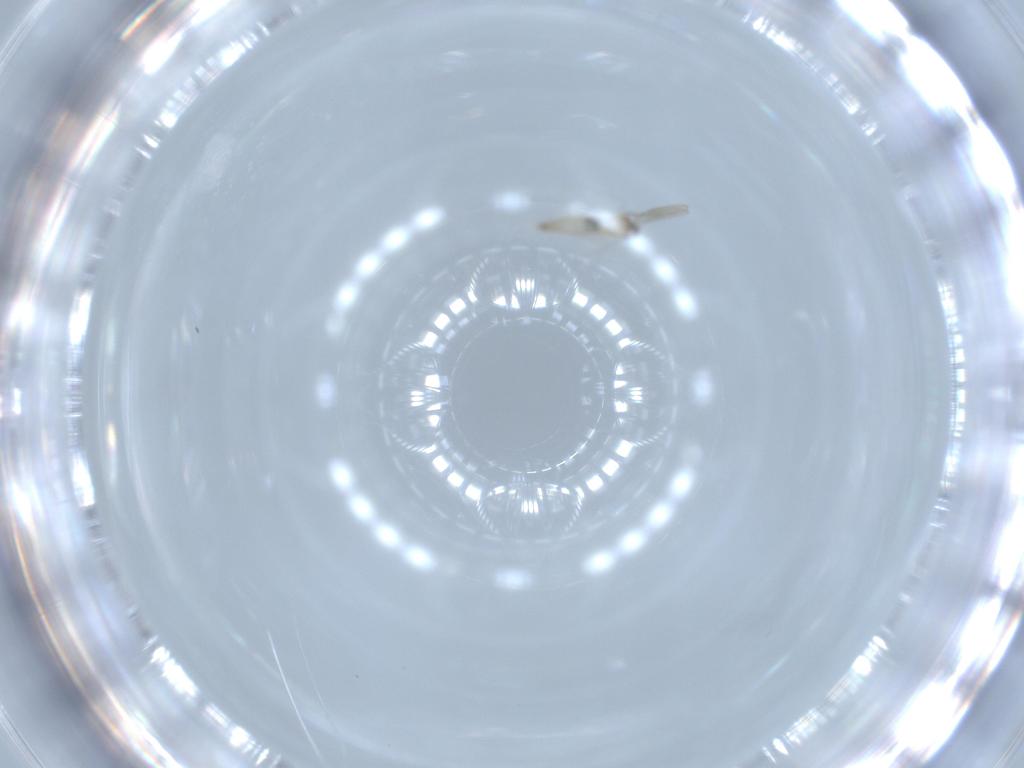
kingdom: Animalia
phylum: Arthropoda
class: Insecta
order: Diptera
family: Cecidomyiidae
